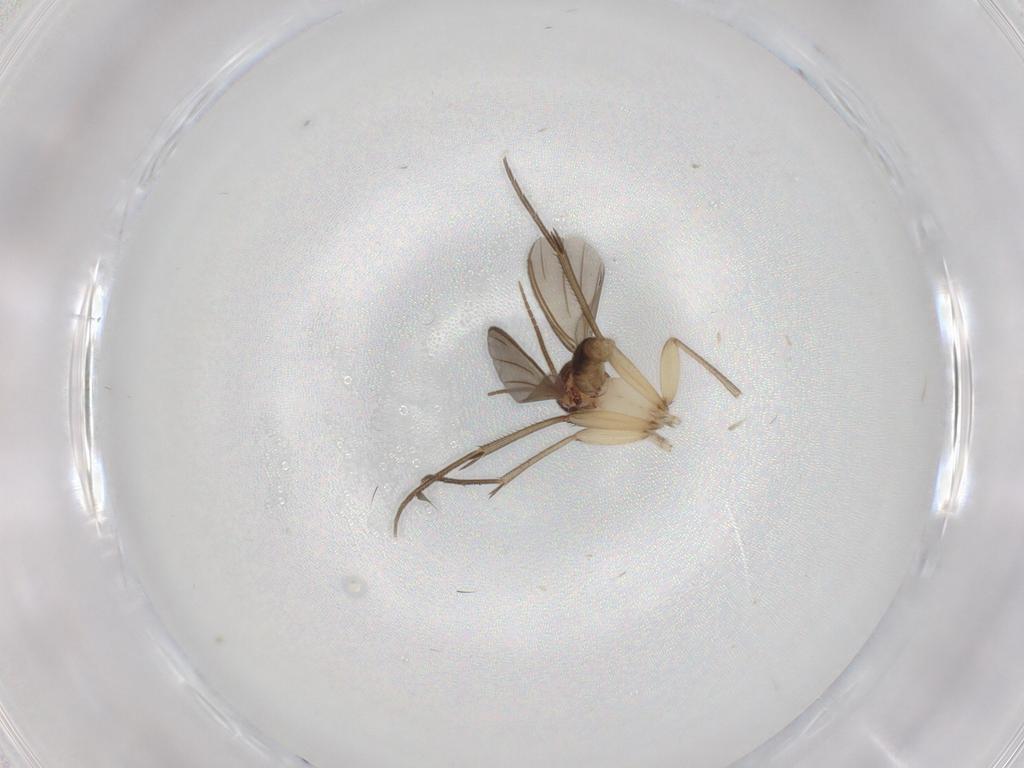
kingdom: Animalia
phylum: Arthropoda
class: Insecta
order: Diptera
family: Mycetophilidae
